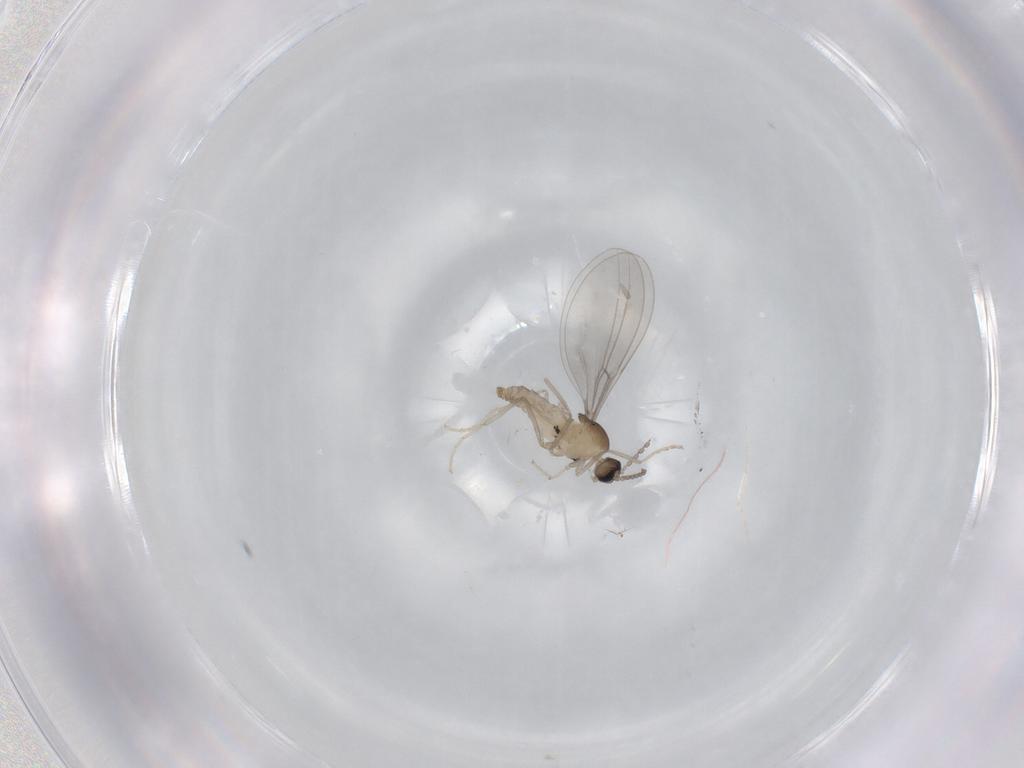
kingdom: Animalia
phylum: Arthropoda
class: Insecta
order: Diptera
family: Cecidomyiidae
